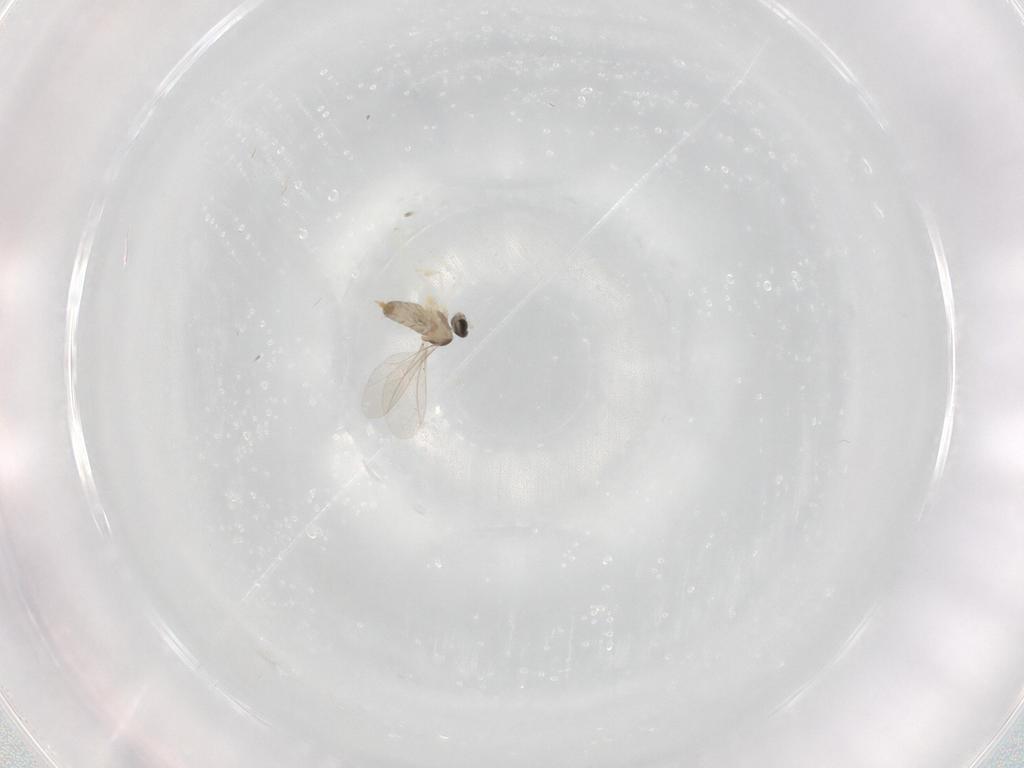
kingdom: Animalia
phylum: Arthropoda
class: Insecta
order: Diptera
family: Cecidomyiidae
